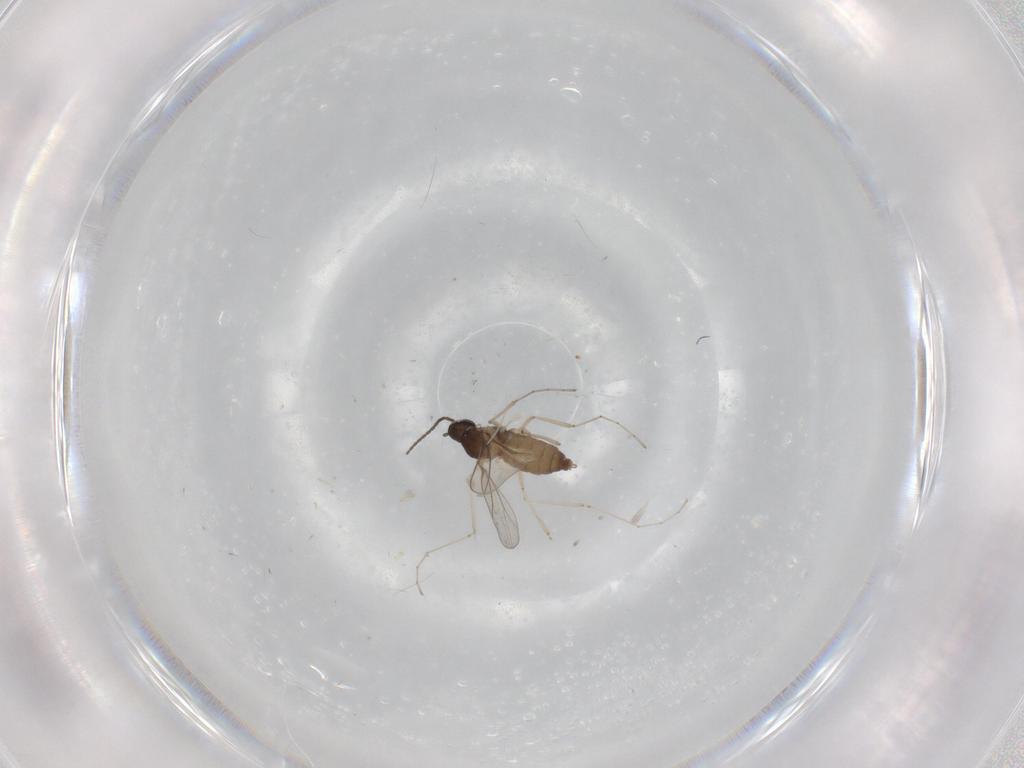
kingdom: Animalia
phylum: Arthropoda
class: Insecta
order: Diptera
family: Phoridae
